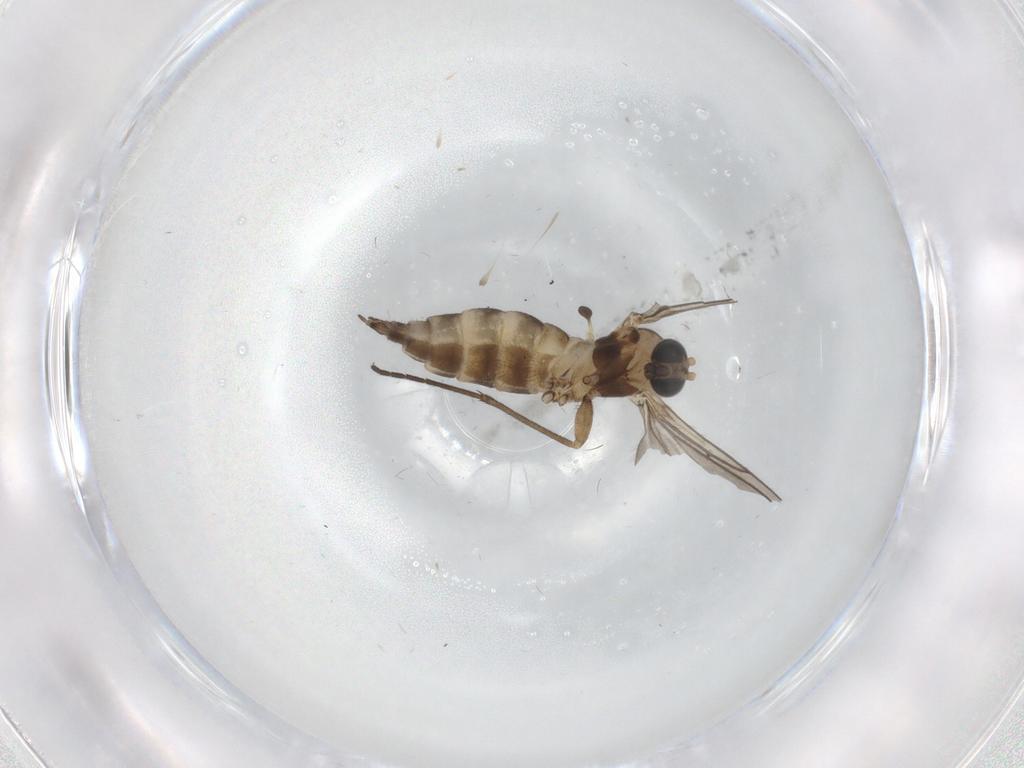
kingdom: Animalia
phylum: Arthropoda
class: Insecta
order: Diptera
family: Sciaridae
